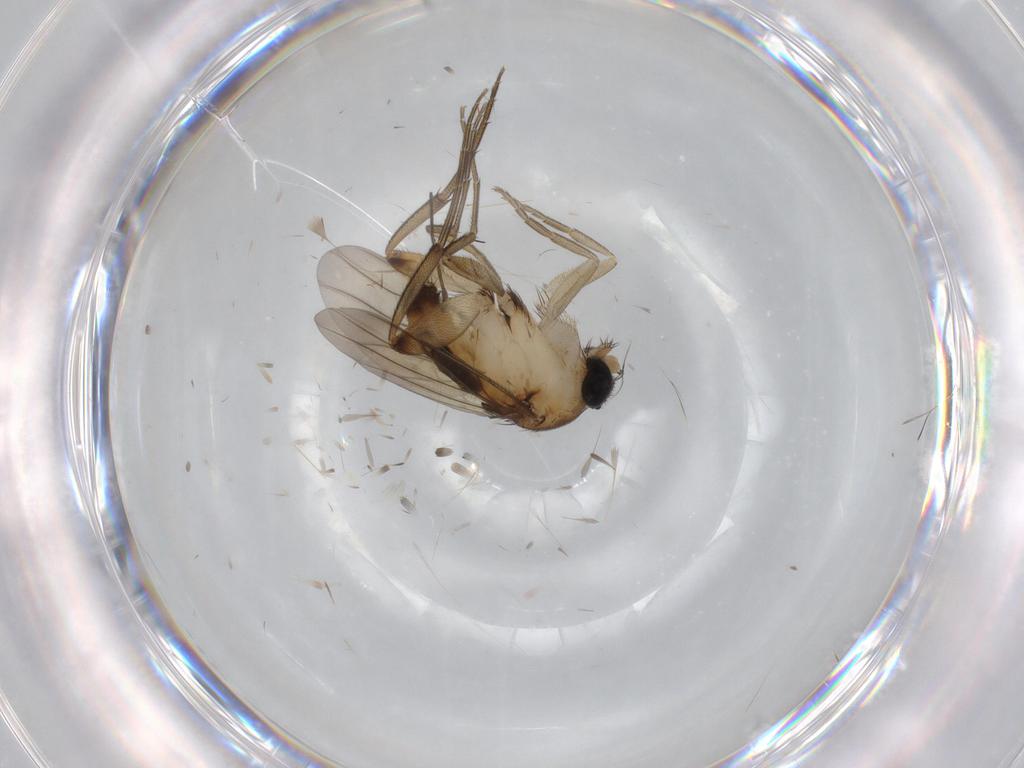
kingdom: Animalia
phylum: Arthropoda
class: Insecta
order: Diptera
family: Phoridae
